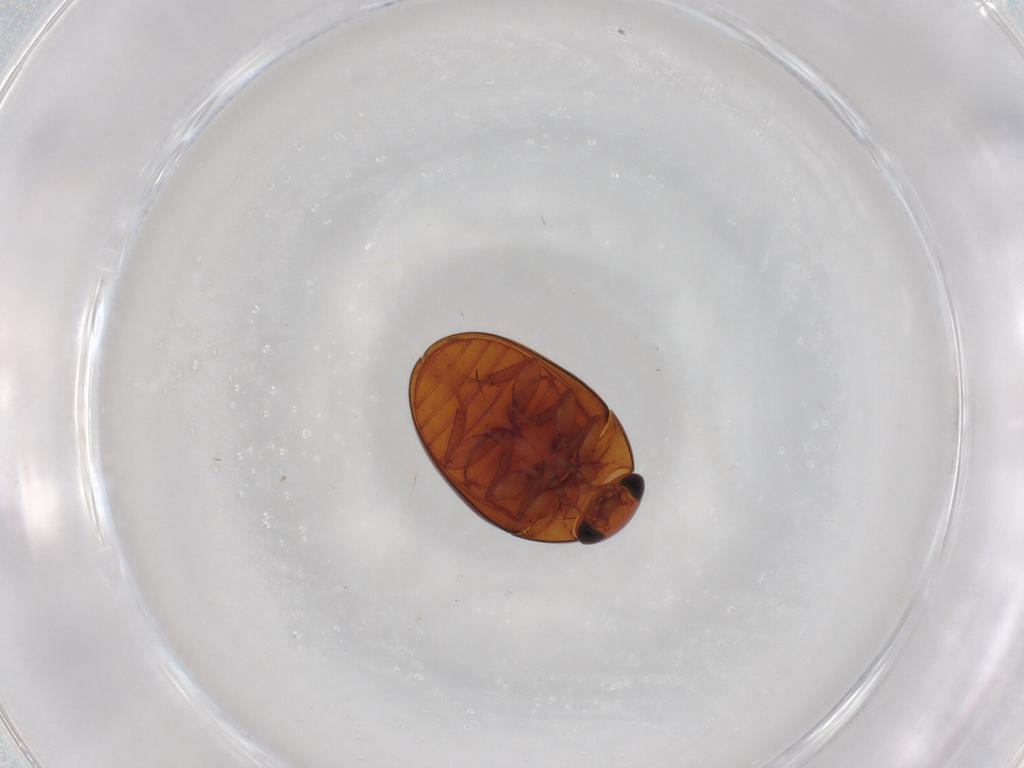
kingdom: Animalia
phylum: Arthropoda
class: Insecta
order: Coleoptera
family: Phalacridae
